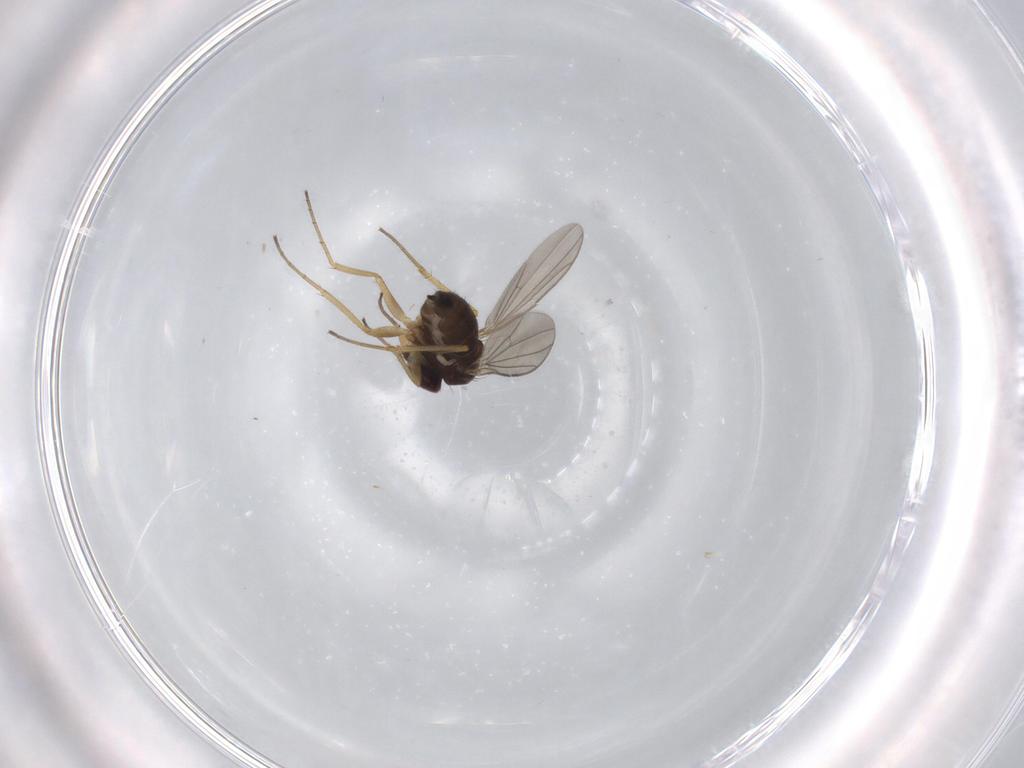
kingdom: Animalia
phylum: Arthropoda
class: Insecta
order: Diptera
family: Chironomidae
